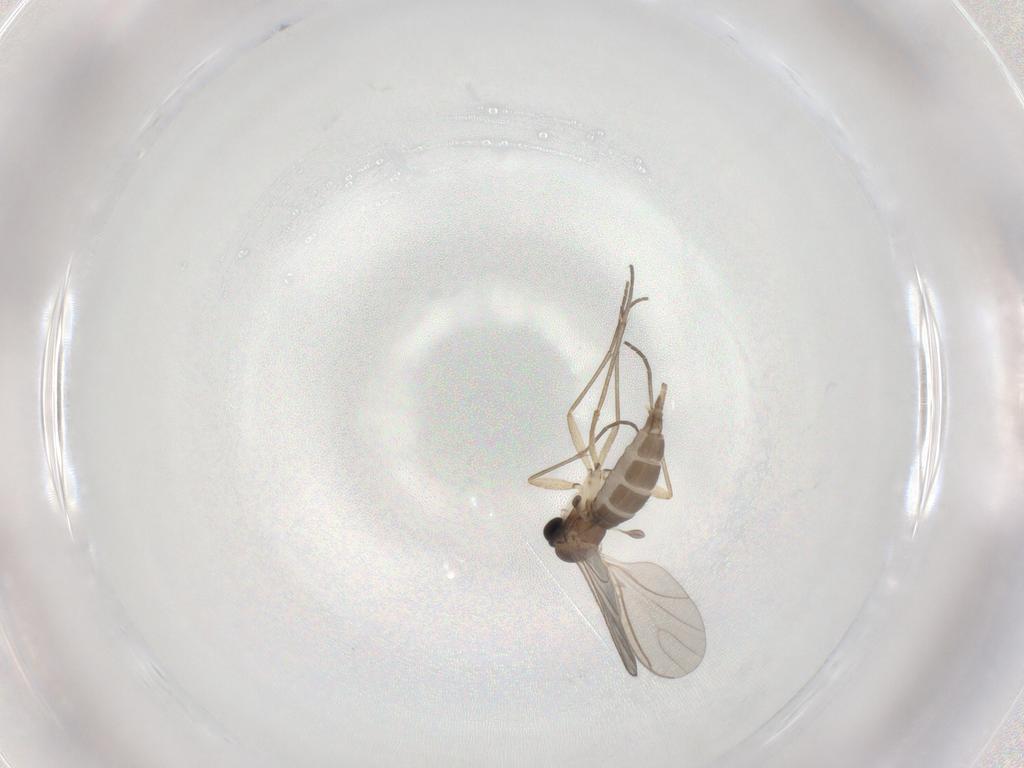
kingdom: Animalia
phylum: Arthropoda
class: Insecta
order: Diptera
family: Sciaridae
